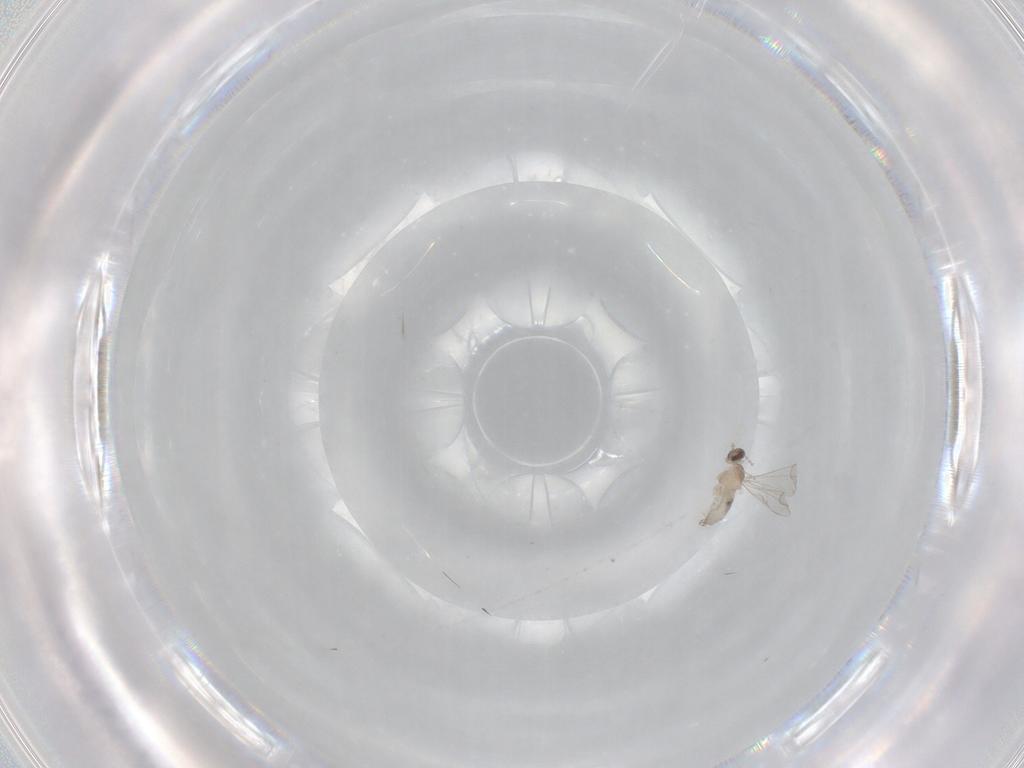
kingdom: Animalia
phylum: Arthropoda
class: Insecta
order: Diptera
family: Cecidomyiidae
